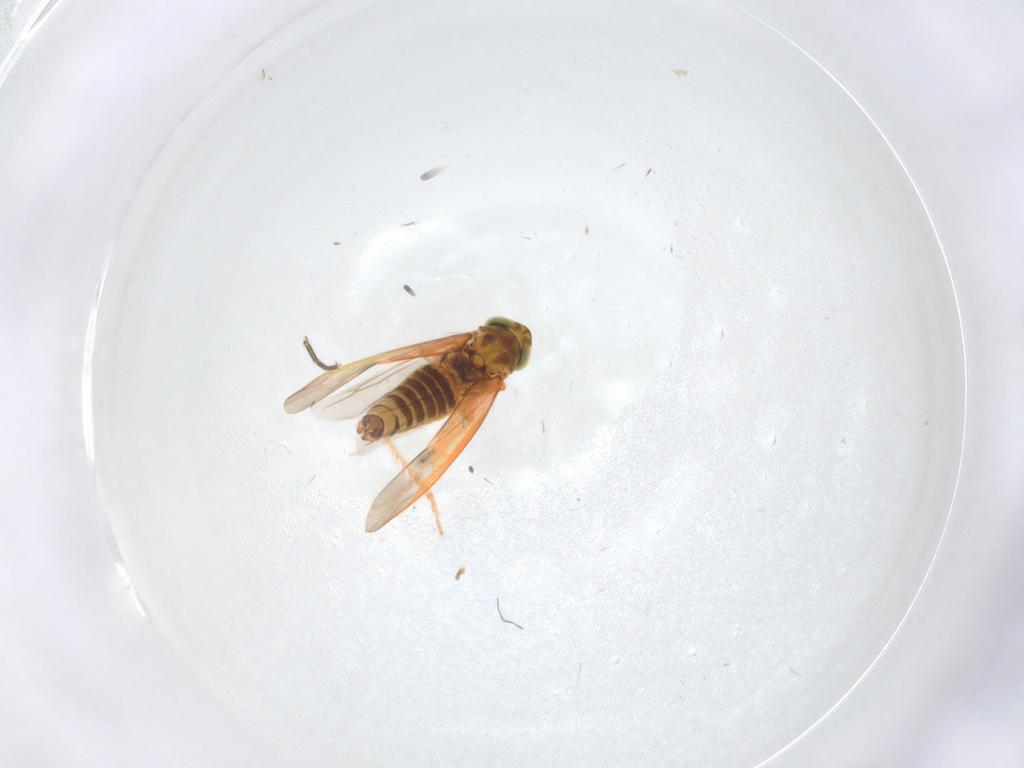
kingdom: Animalia
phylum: Arthropoda
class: Insecta
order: Hemiptera
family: Cicadellidae
